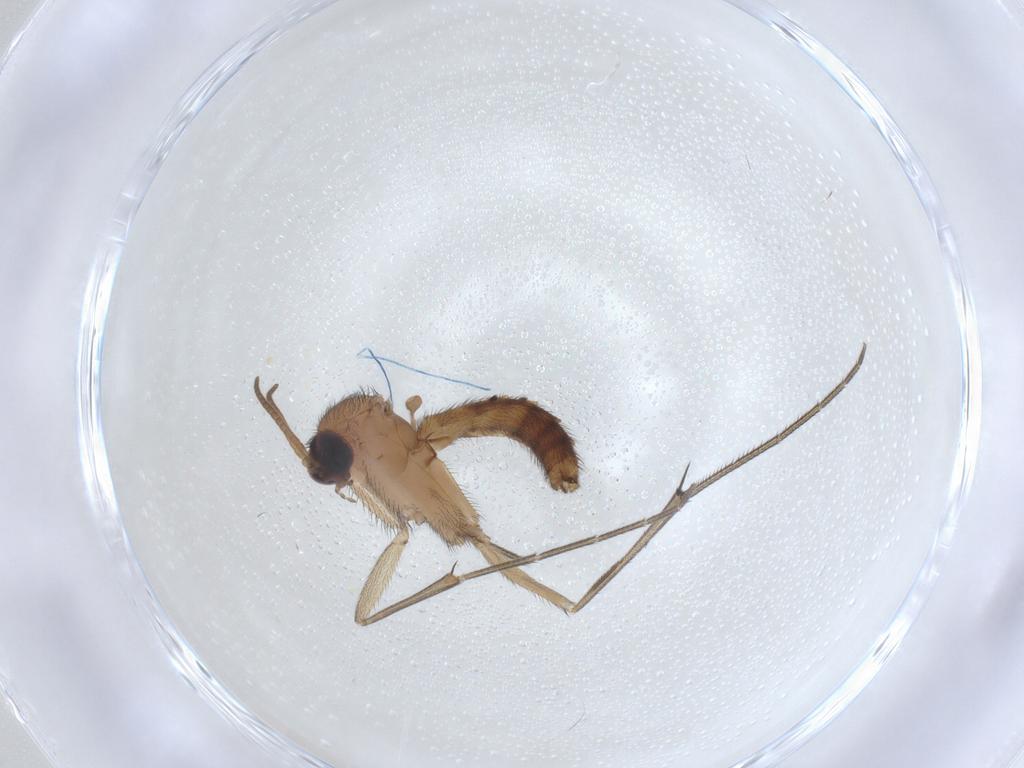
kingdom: Animalia
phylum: Arthropoda
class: Insecta
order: Diptera
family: Keroplatidae
